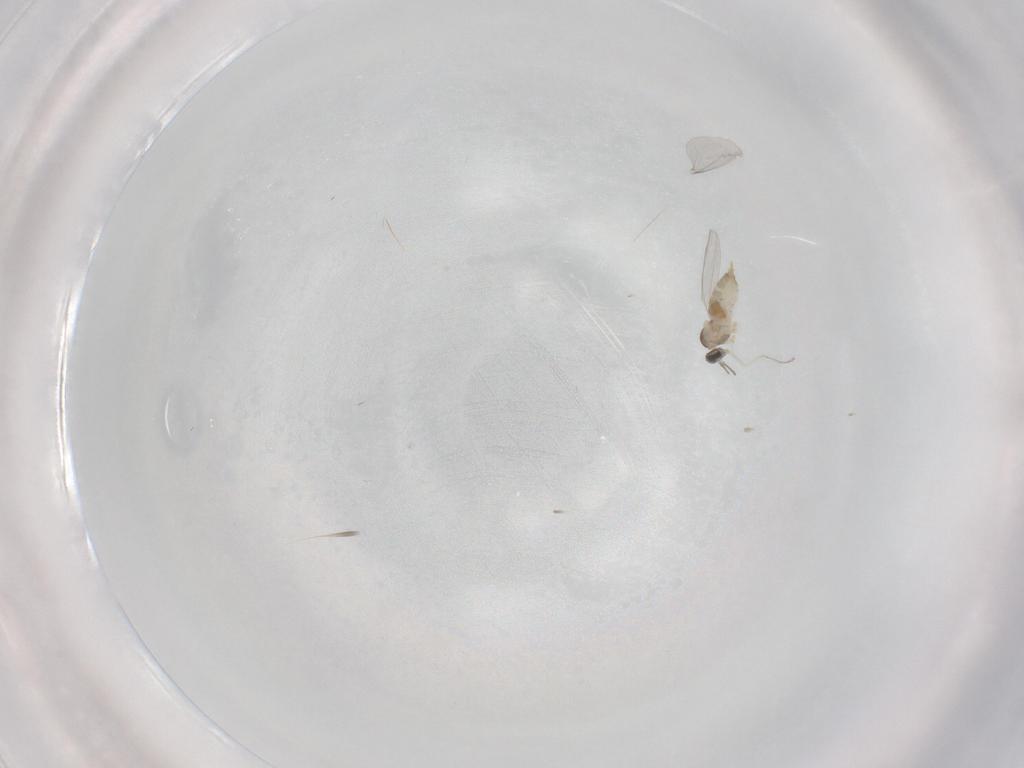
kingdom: Animalia
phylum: Arthropoda
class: Insecta
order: Diptera
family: Cecidomyiidae
